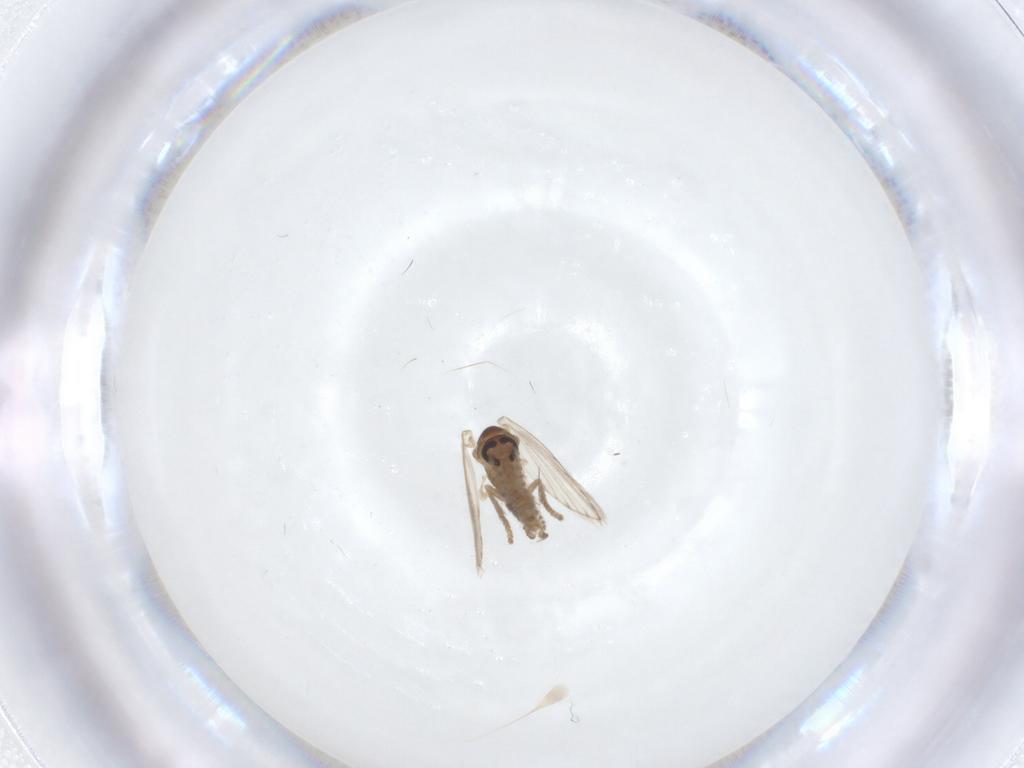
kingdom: Animalia
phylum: Arthropoda
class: Insecta
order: Diptera
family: Psychodidae
